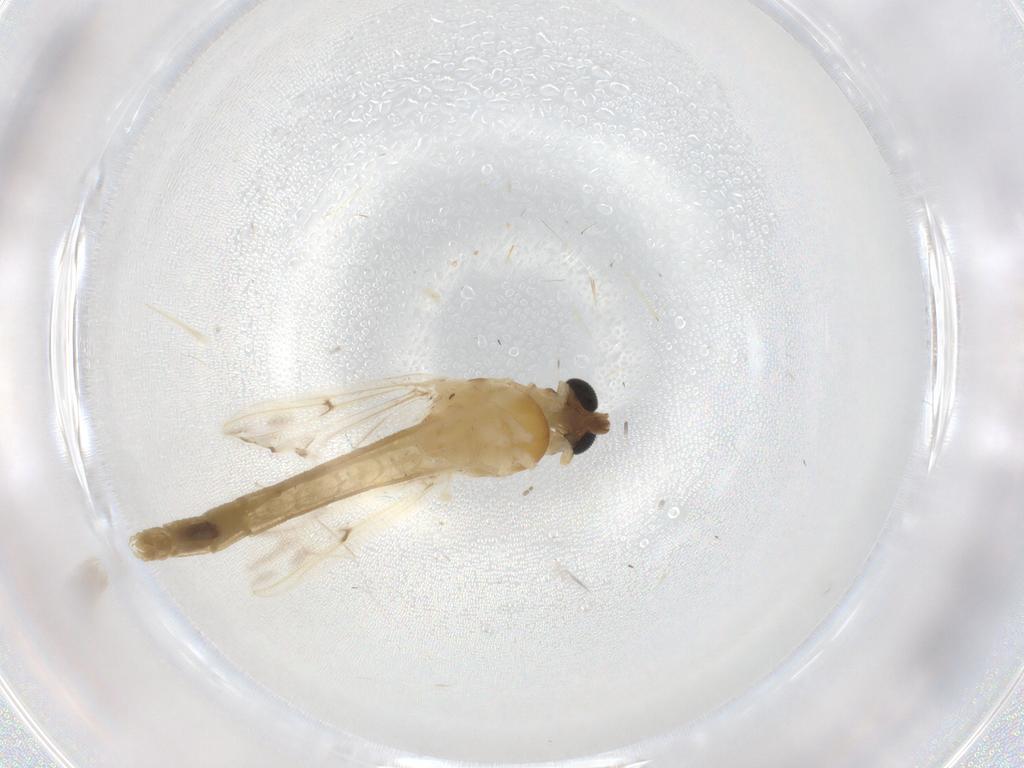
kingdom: Animalia
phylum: Arthropoda
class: Insecta
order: Diptera
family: Chironomidae
